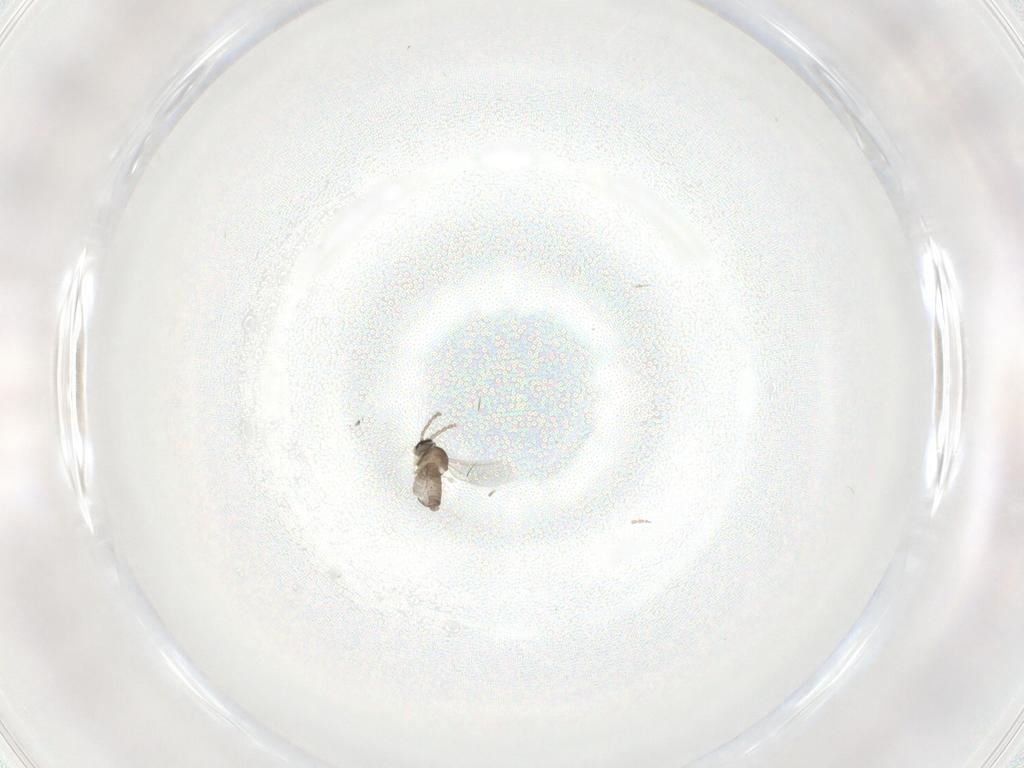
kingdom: Animalia
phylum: Arthropoda
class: Insecta
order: Diptera
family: Cecidomyiidae
